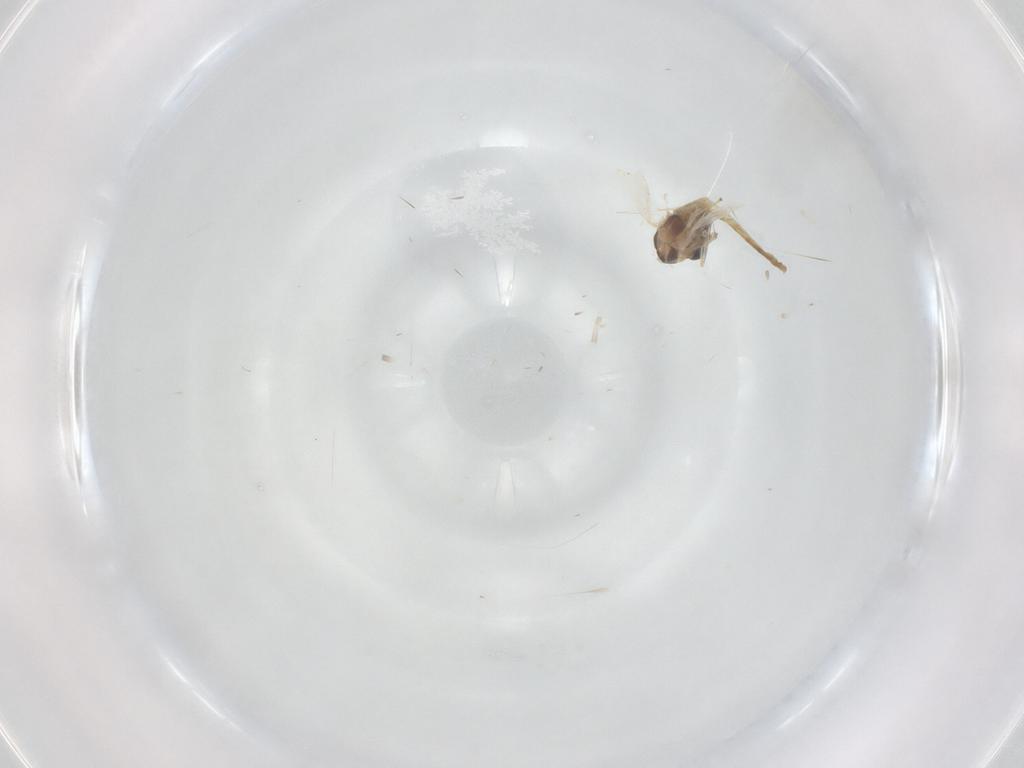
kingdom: Animalia
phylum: Arthropoda
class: Insecta
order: Diptera
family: Chironomidae
